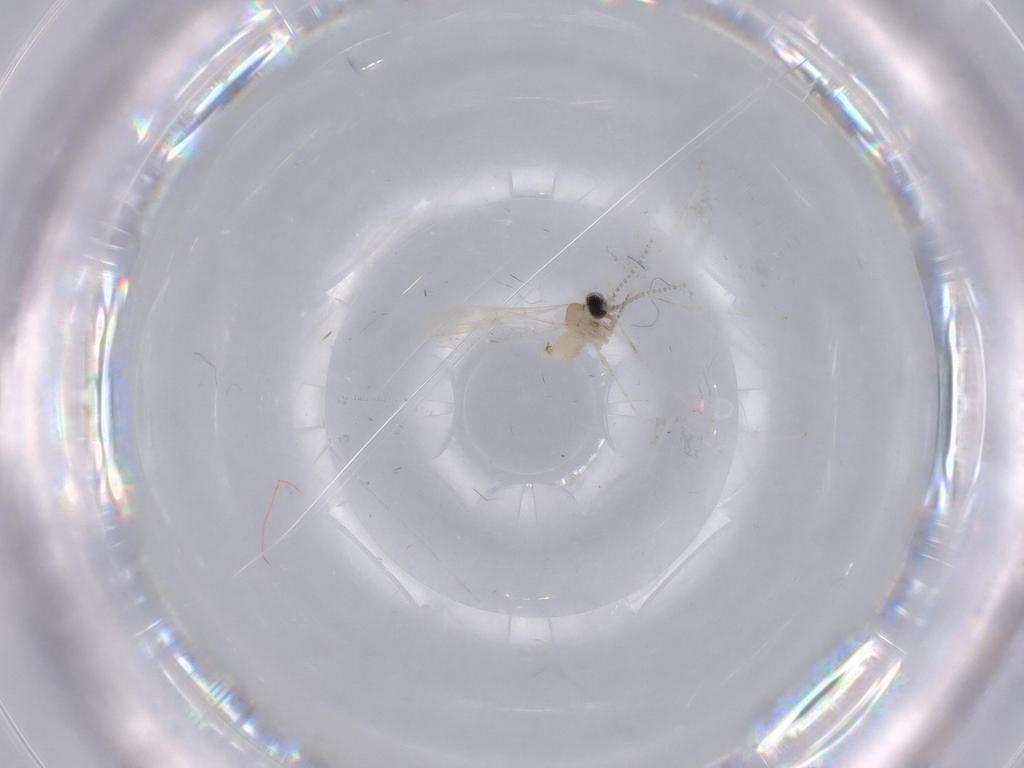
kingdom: Animalia
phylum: Arthropoda
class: Insecta
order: Diptera
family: Cecidomyiidae
